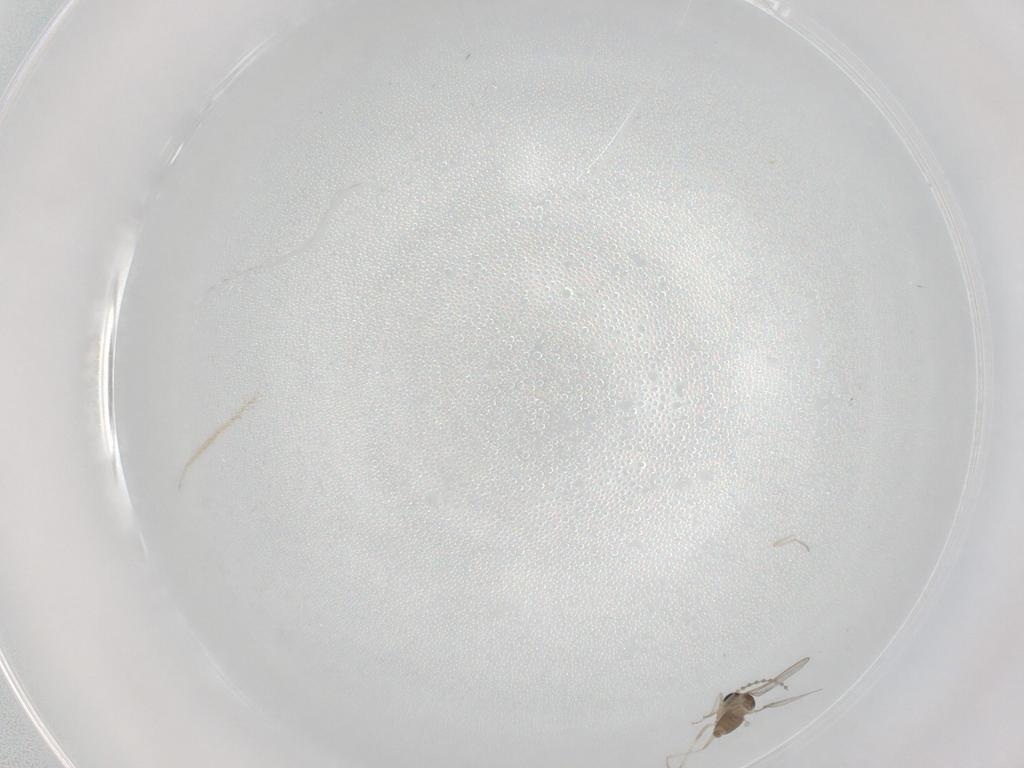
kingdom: Animalia
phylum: Arthropoda
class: Insecta
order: Diptera
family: Cecidomyiidae
